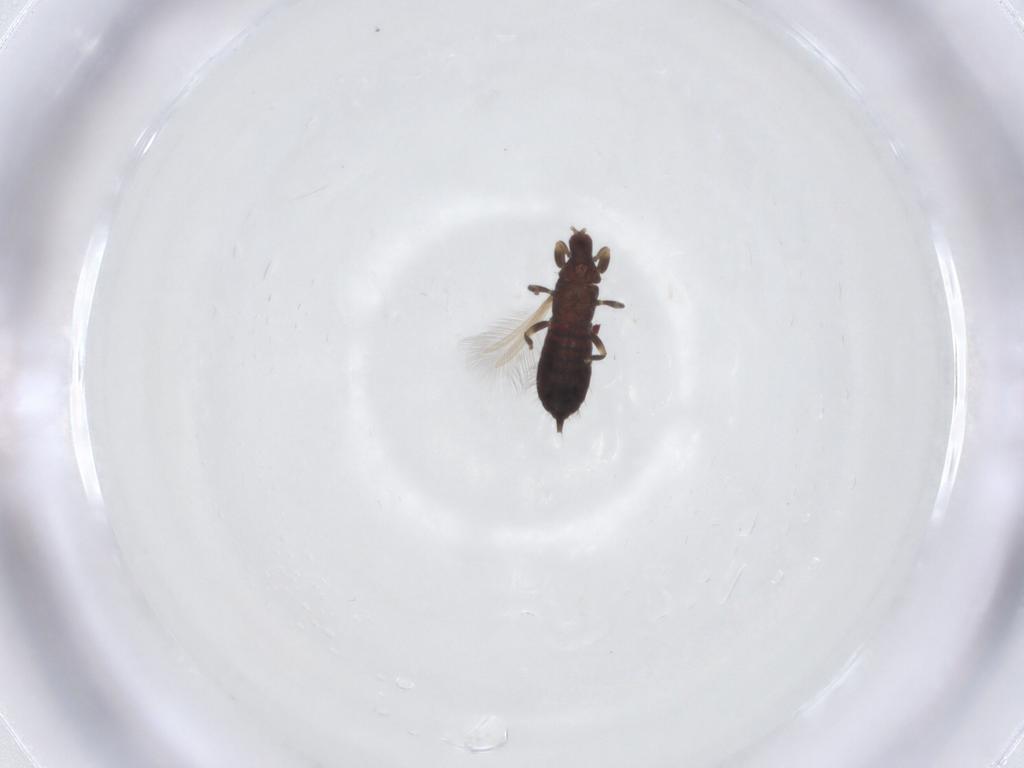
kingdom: Animalia
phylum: Arthropoda
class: Insecta
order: Thysanoptera
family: Phlaeothripidae
